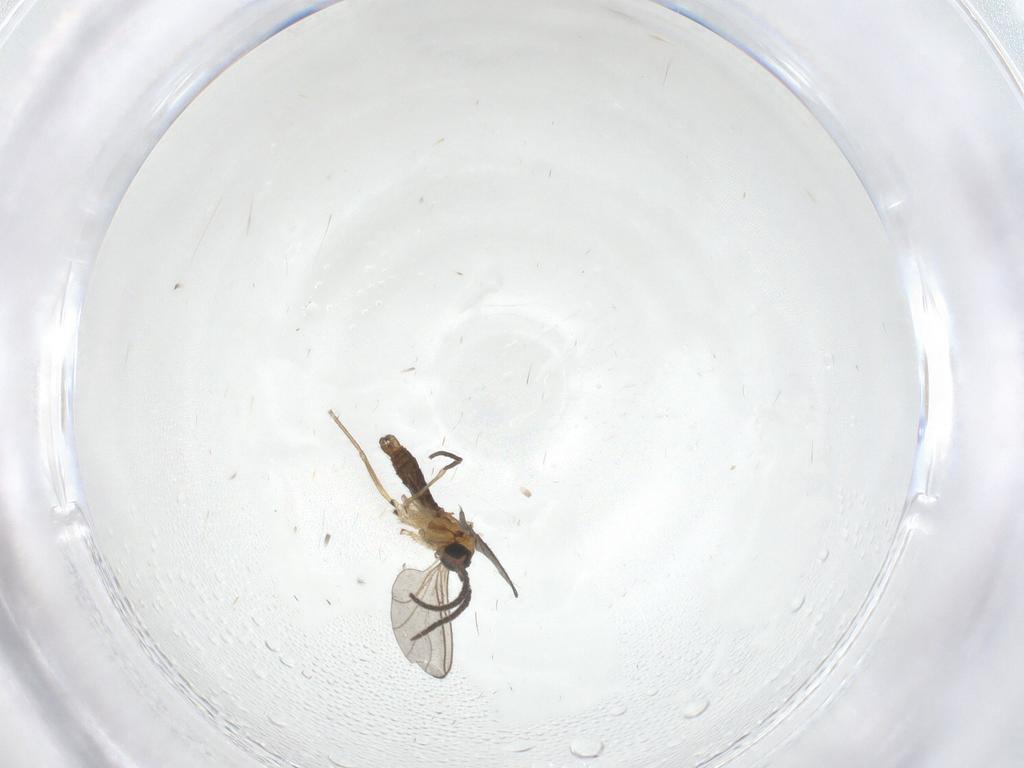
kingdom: Animalia
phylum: Arthropoda
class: Insecta
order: Diptera
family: Sciaridae
